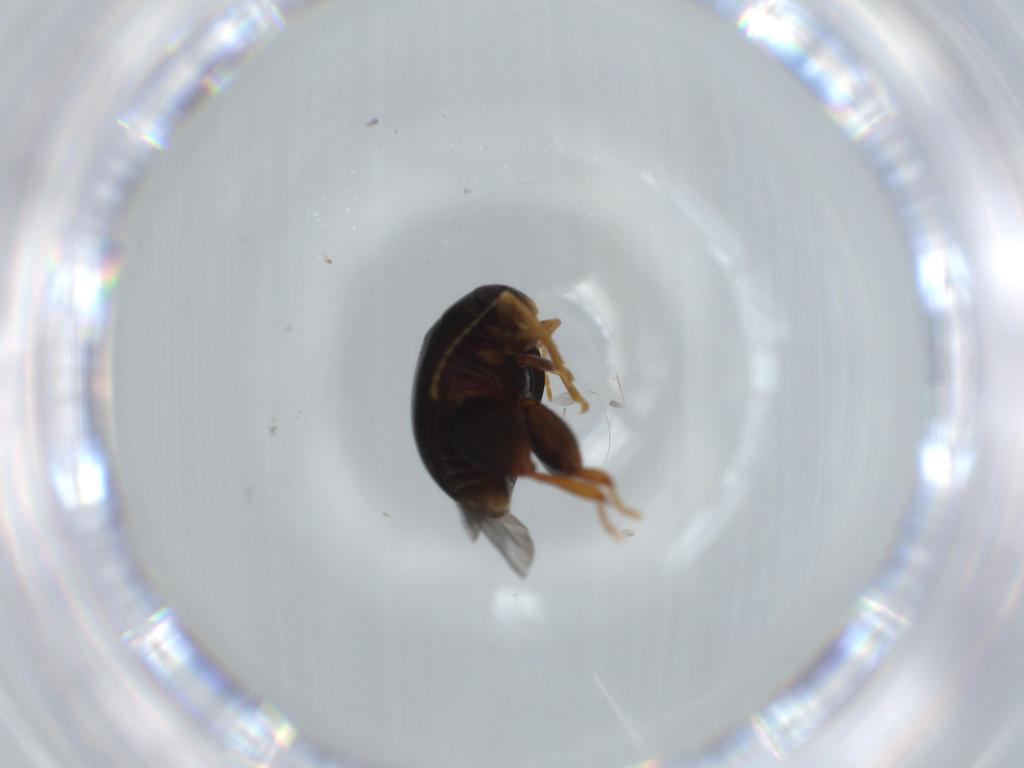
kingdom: Animalia
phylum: Arthropoda
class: Insecta
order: Coleoptera
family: Chrysomelidae
